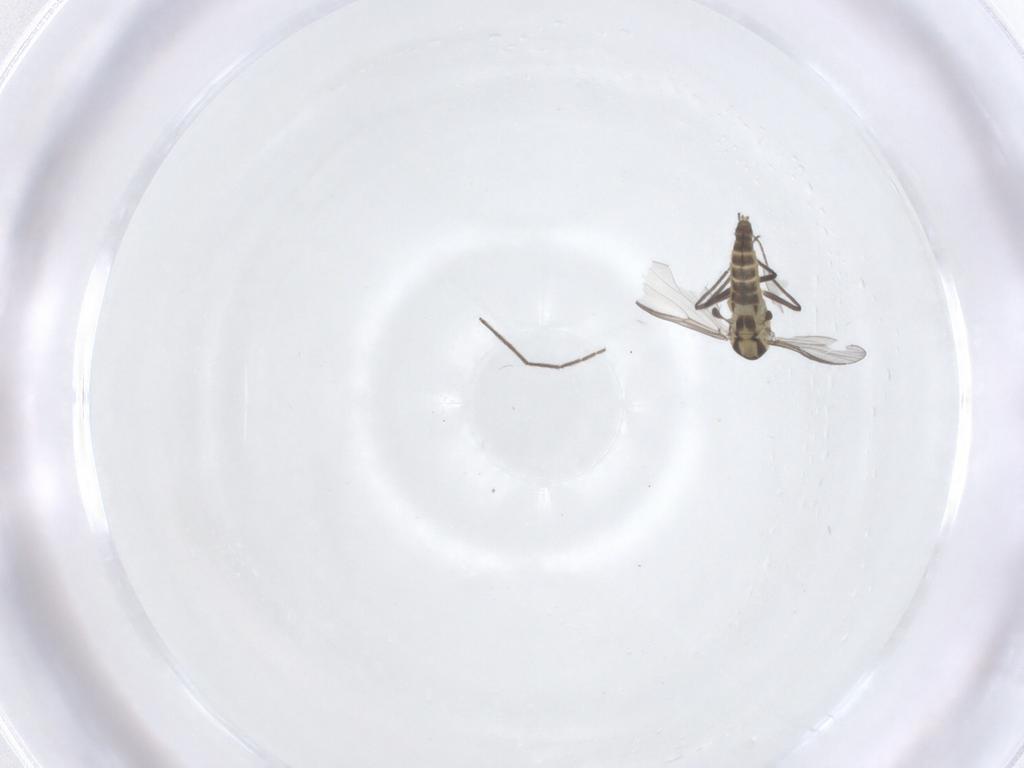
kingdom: Animalia
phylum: Arthropoda
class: Insecta
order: Diptera
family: Chironomidae
